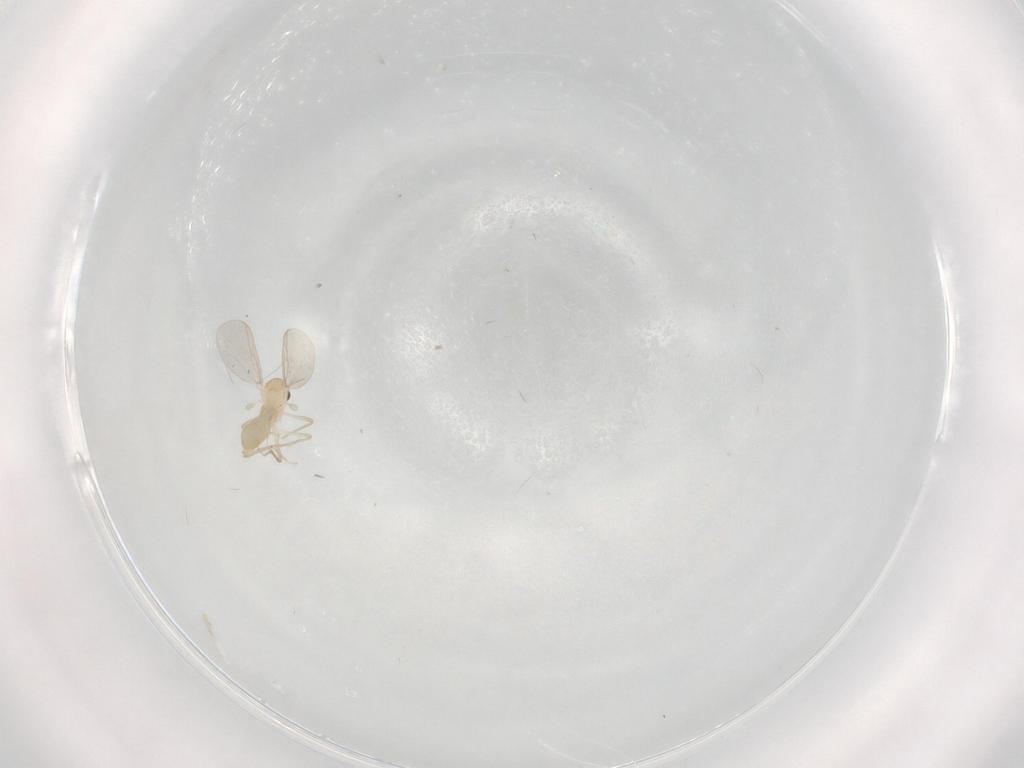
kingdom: Animalia
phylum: Arthropoda
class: Insecta
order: Diptera
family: Chironomidae
